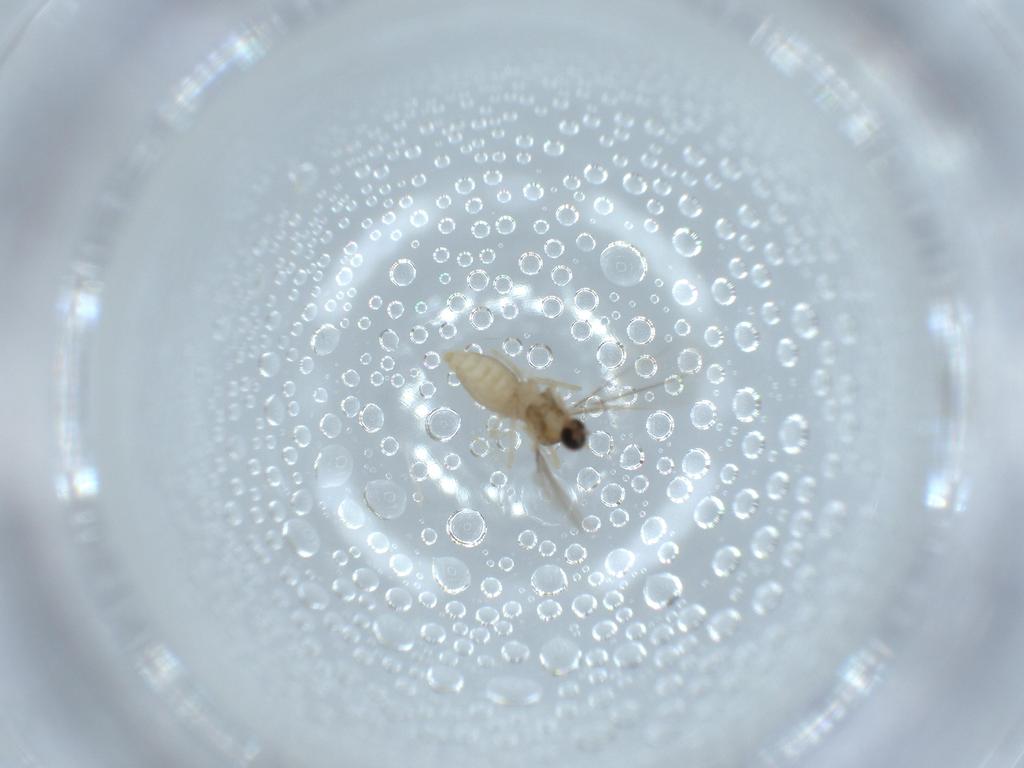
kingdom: Animalia
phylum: Arthropoda
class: Insecta
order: Diptera
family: Cecidomyiidae
